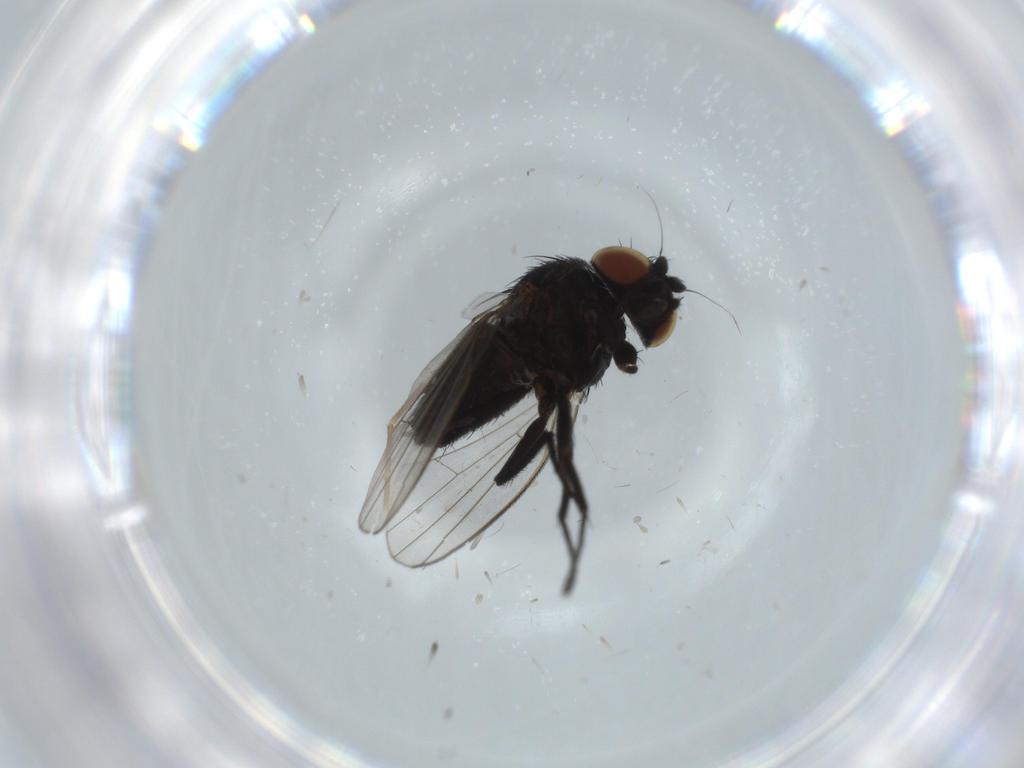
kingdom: Animalia
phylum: Arthropoda
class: Insecta
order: Diptera
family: Milichiidae
